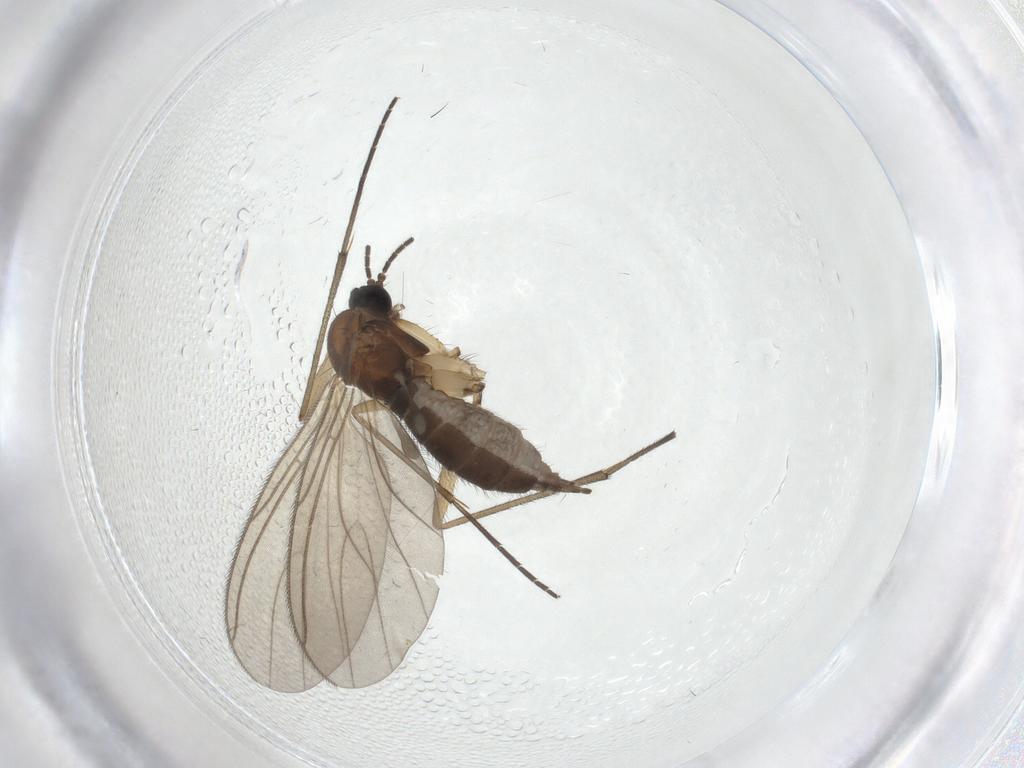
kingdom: Animalia
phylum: Arthropoda
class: Insecta
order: Diptera
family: Sciaridae
